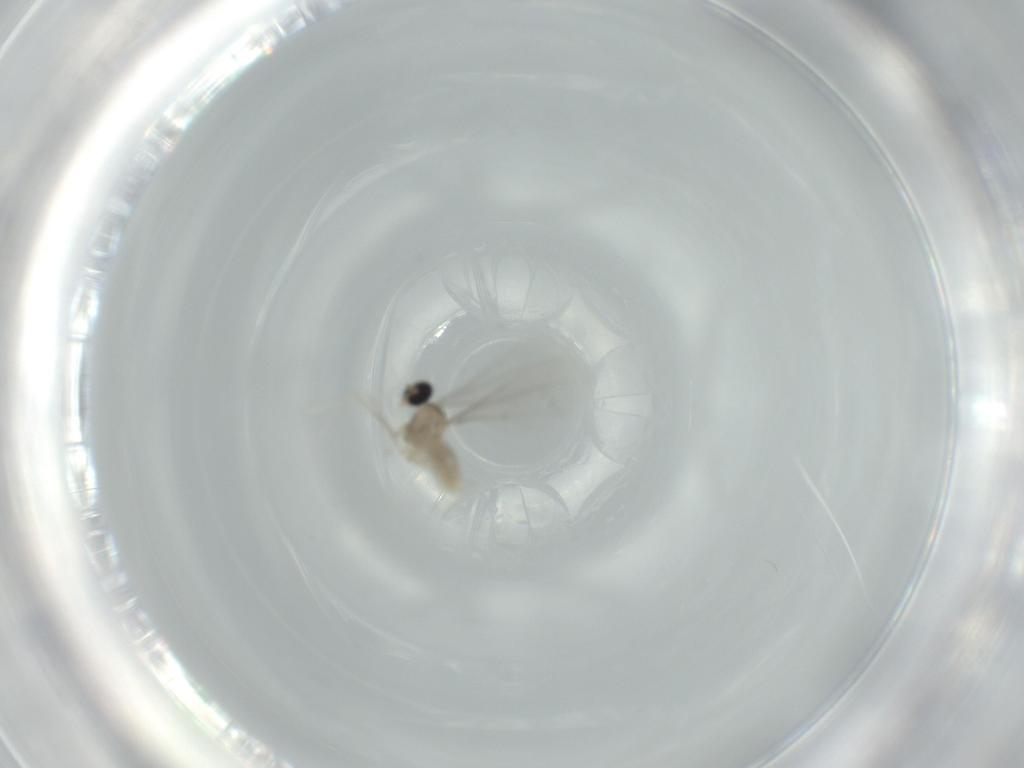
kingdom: Animalia
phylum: Arthropoda
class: Insecta
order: Diptera
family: Cecidomyiidae
